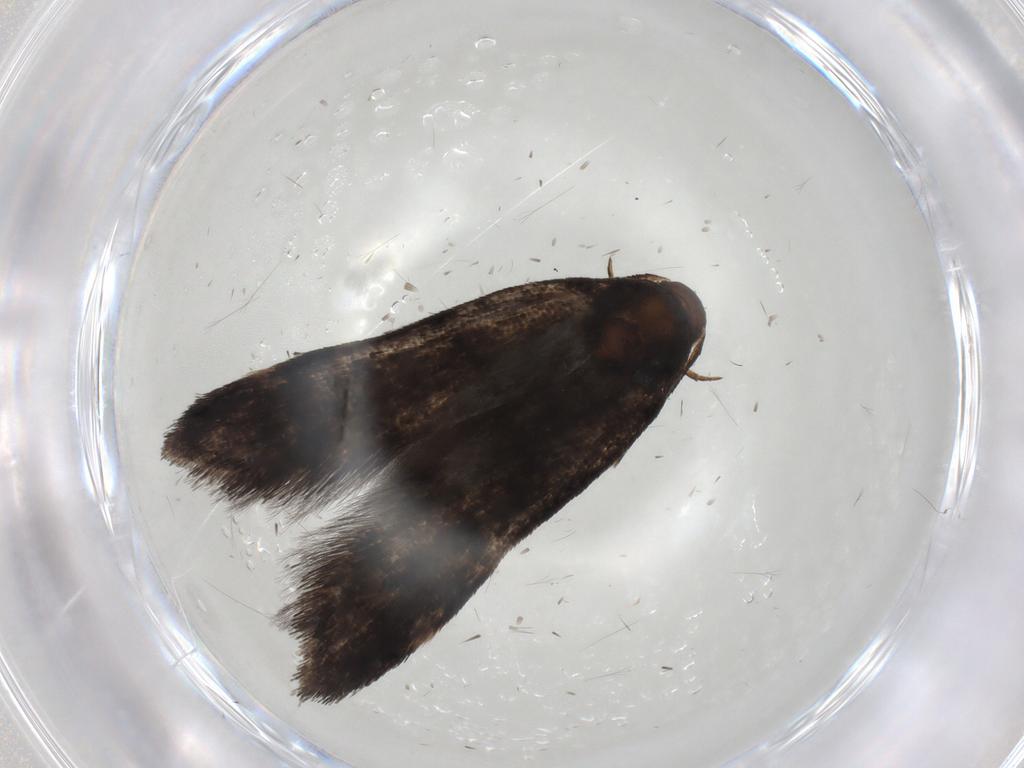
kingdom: Animalia
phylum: Arthropoda
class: Insecta
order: Lepidoptera
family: Noctuidae
